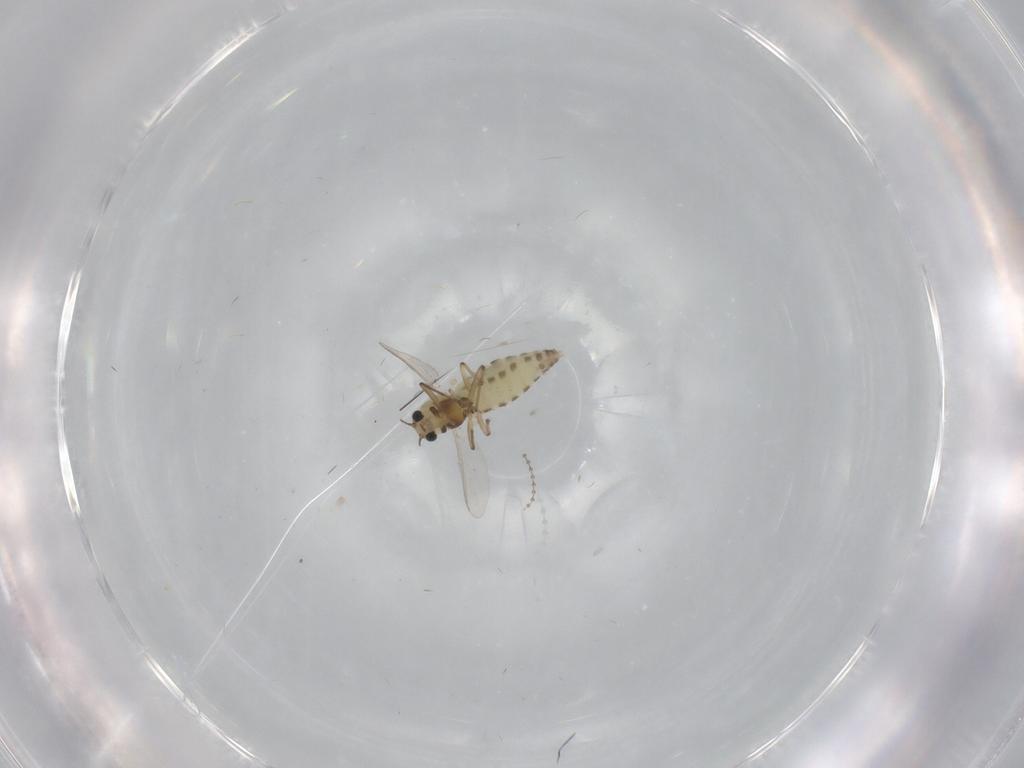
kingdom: Animalia
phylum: Arthropoda
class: Insecta
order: Diptera
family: Chironomidae
